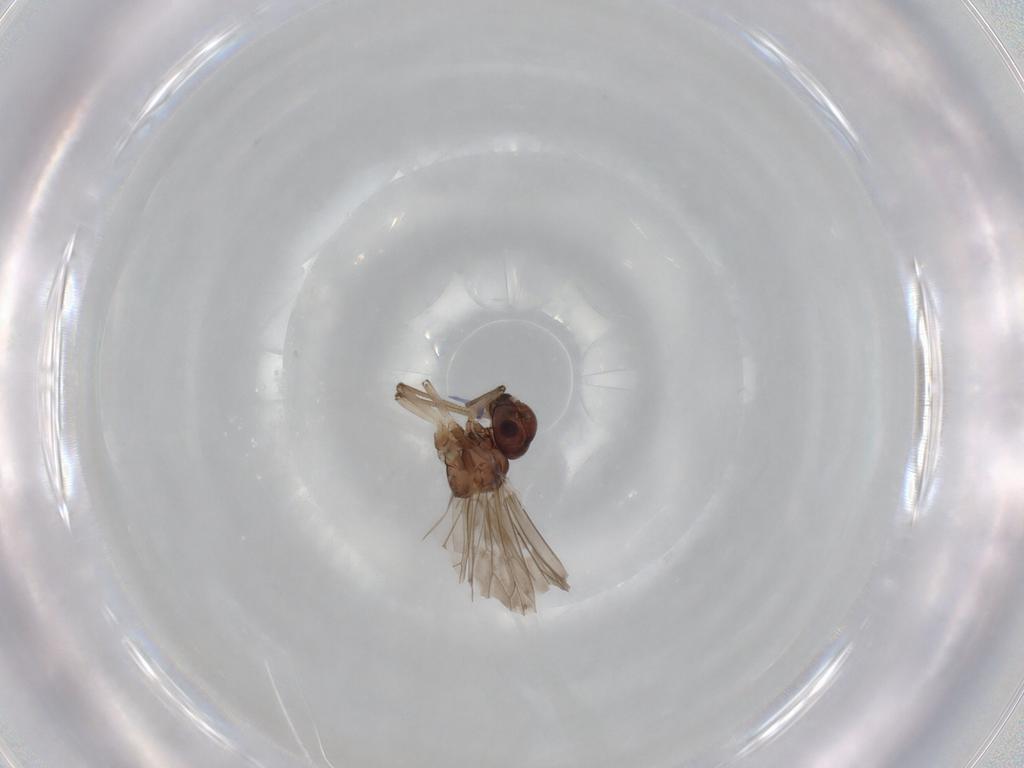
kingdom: Animalia
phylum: Arthropoda
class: Insecta
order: Psocodea
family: Peripsocidae
